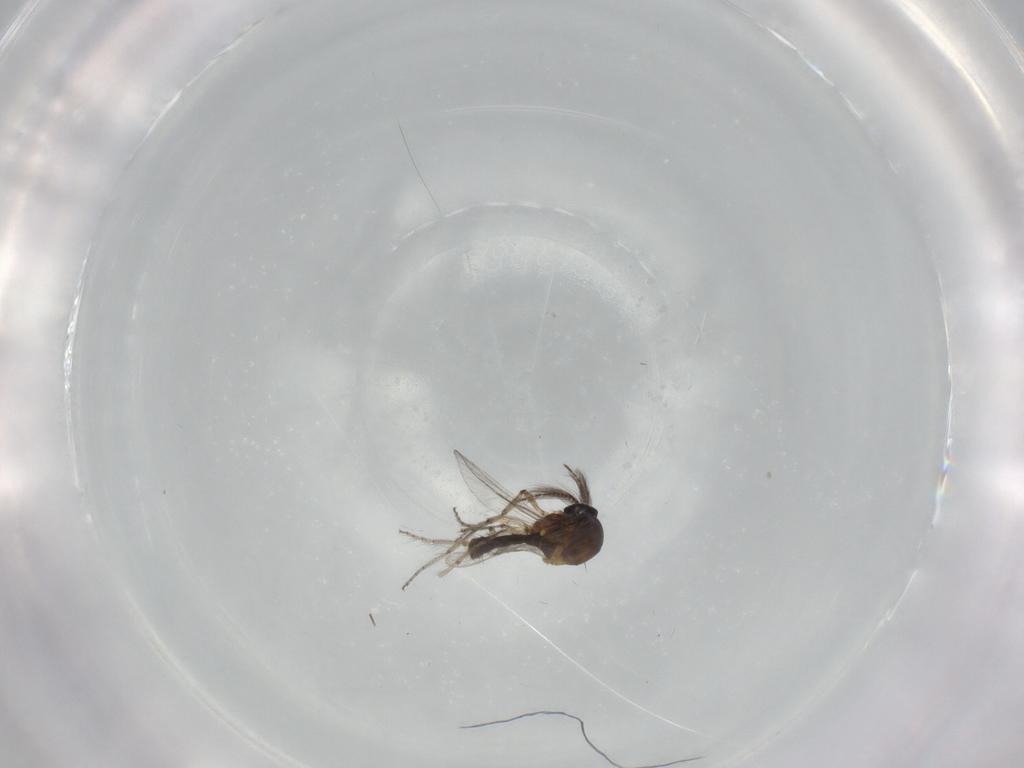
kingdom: Animalia
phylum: Arthropoda
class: Insecta
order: Diptera
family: Ceratopogonidae
